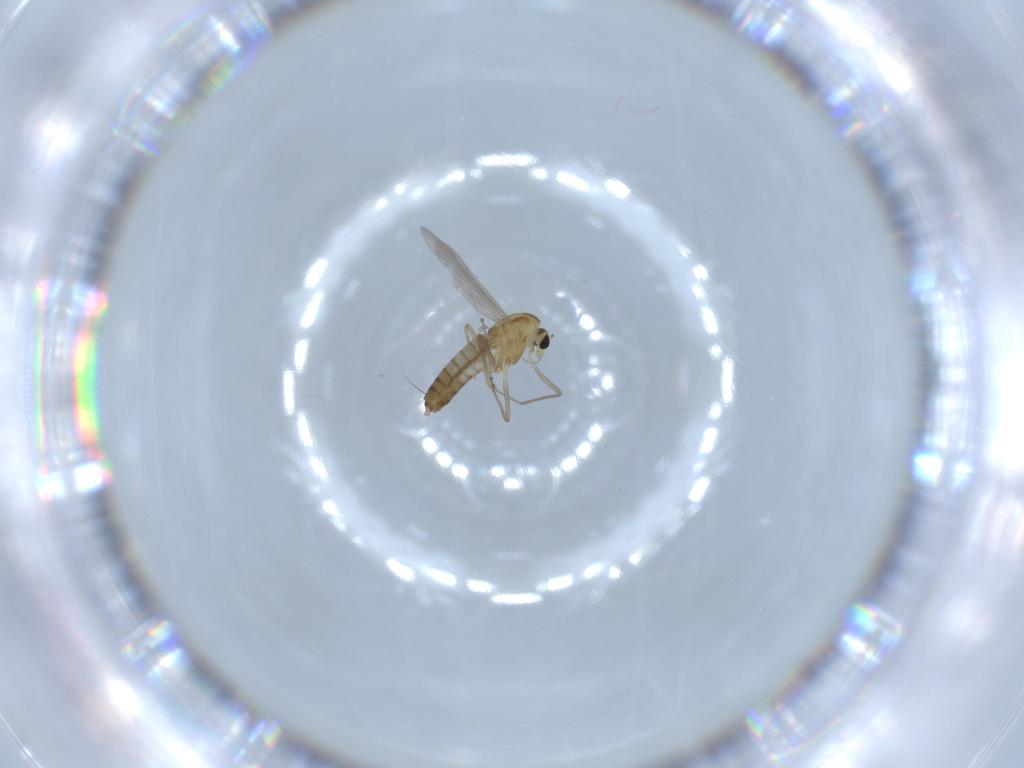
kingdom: Animalia
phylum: Arthropoda
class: Insecta
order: Diptera
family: Chironomidae
